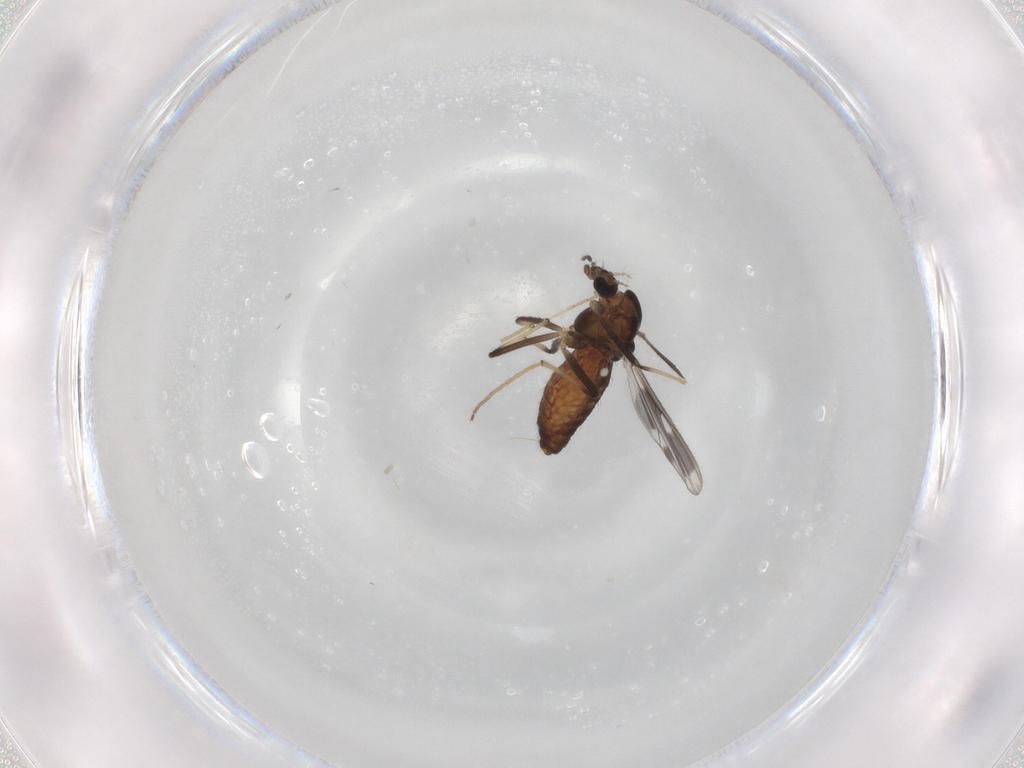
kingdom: Animalia
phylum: Arthropoda
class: Insecta
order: Diptera
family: Chironomidae
